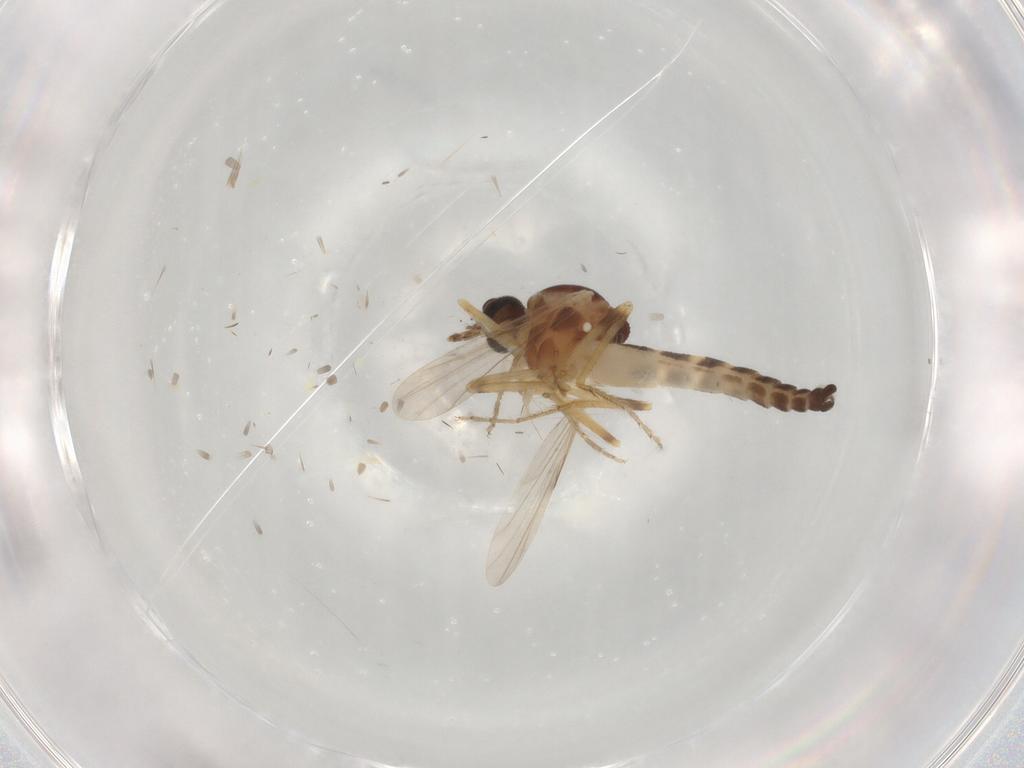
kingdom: Animalia
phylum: Arthropoda
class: Insecta
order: Diptera
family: Ceratopogonidae
